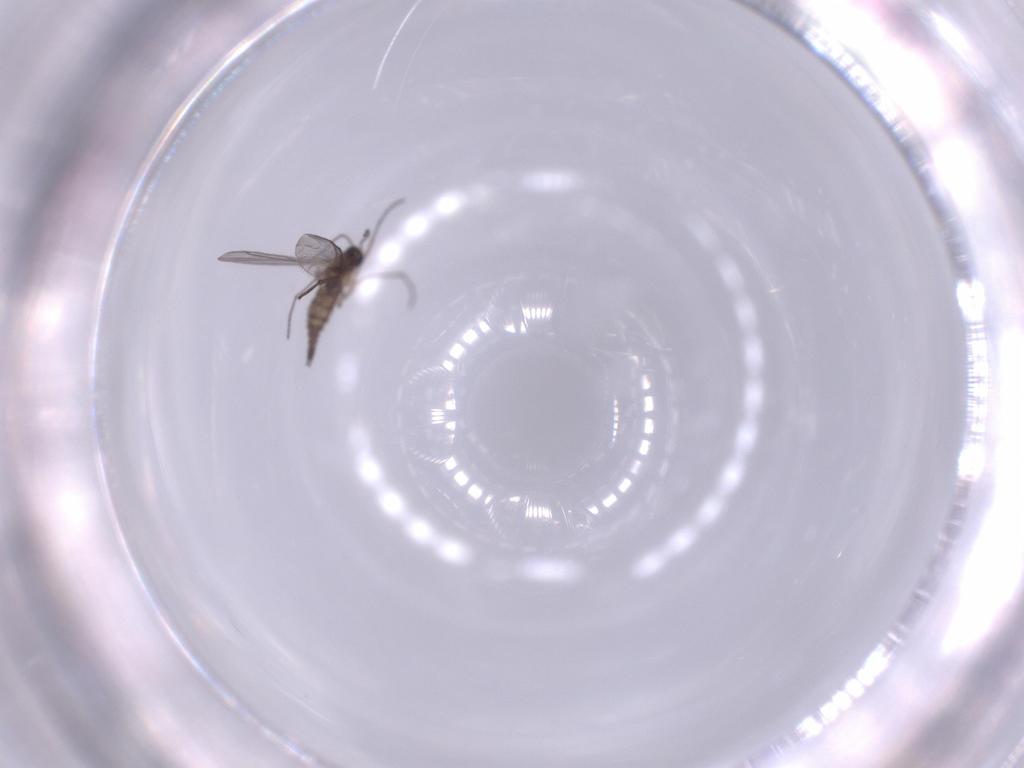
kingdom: Animalia
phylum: Arthropoda
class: Insecta
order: Diptera
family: Sciaridae
